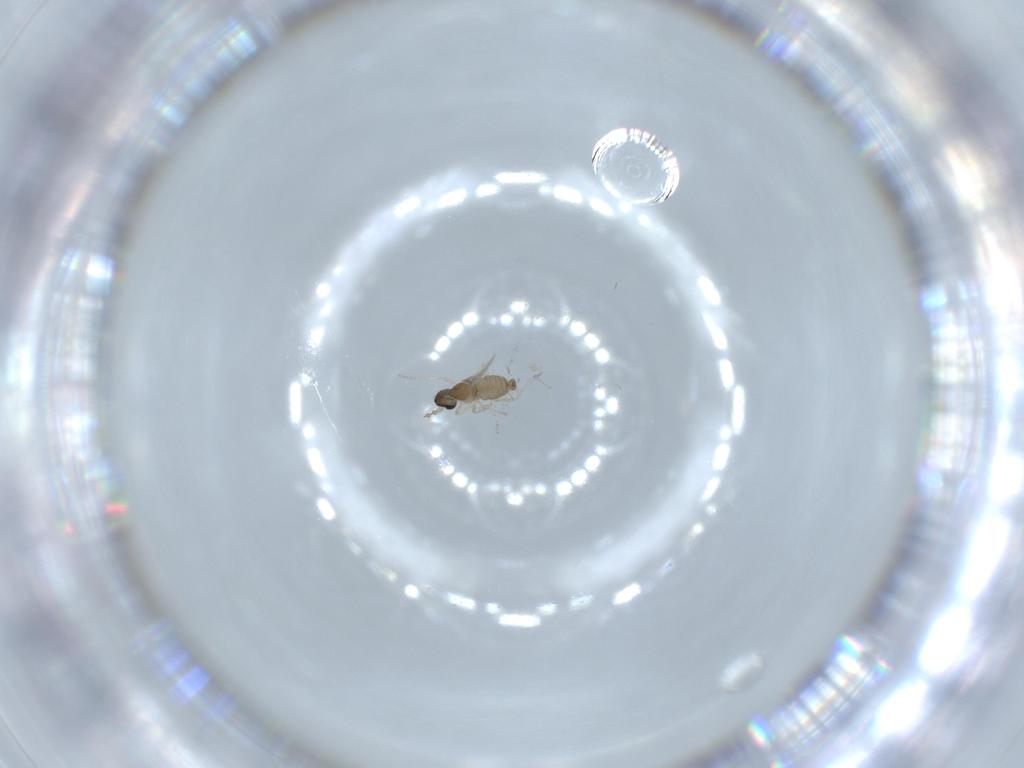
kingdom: Animalia
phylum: Arthropoda
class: Insecta
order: Diptera
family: Cecidomyiidae
